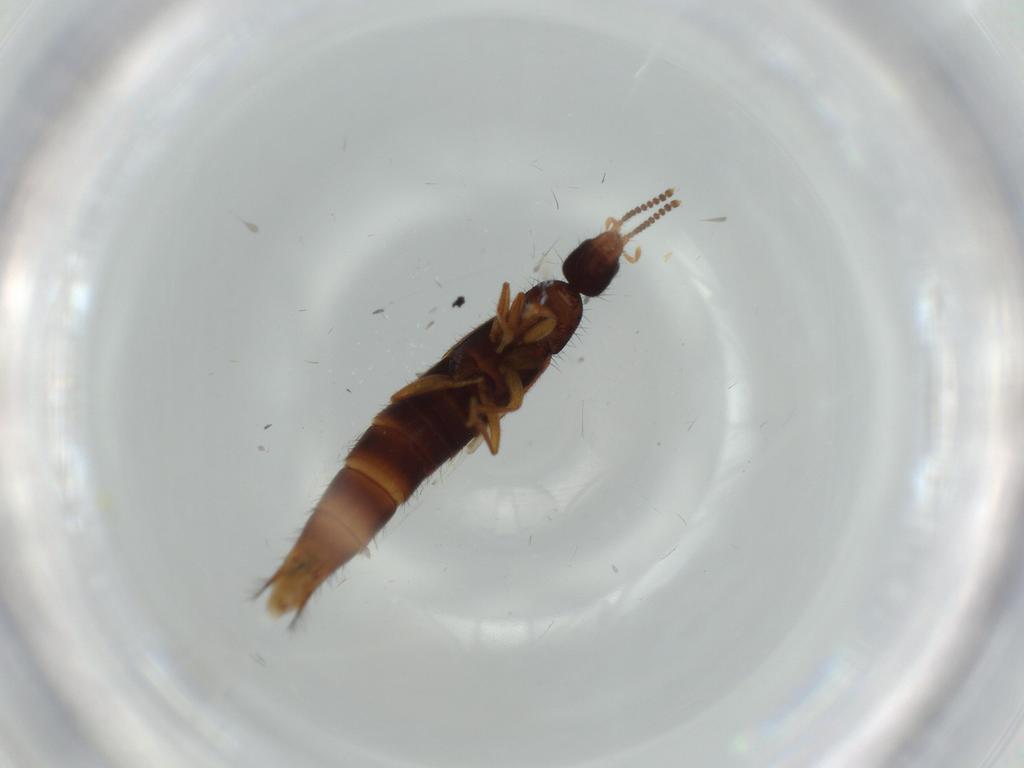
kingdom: Animalia
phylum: Arthropoda
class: Insecta
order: Coleoptera
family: Staphylinidae
